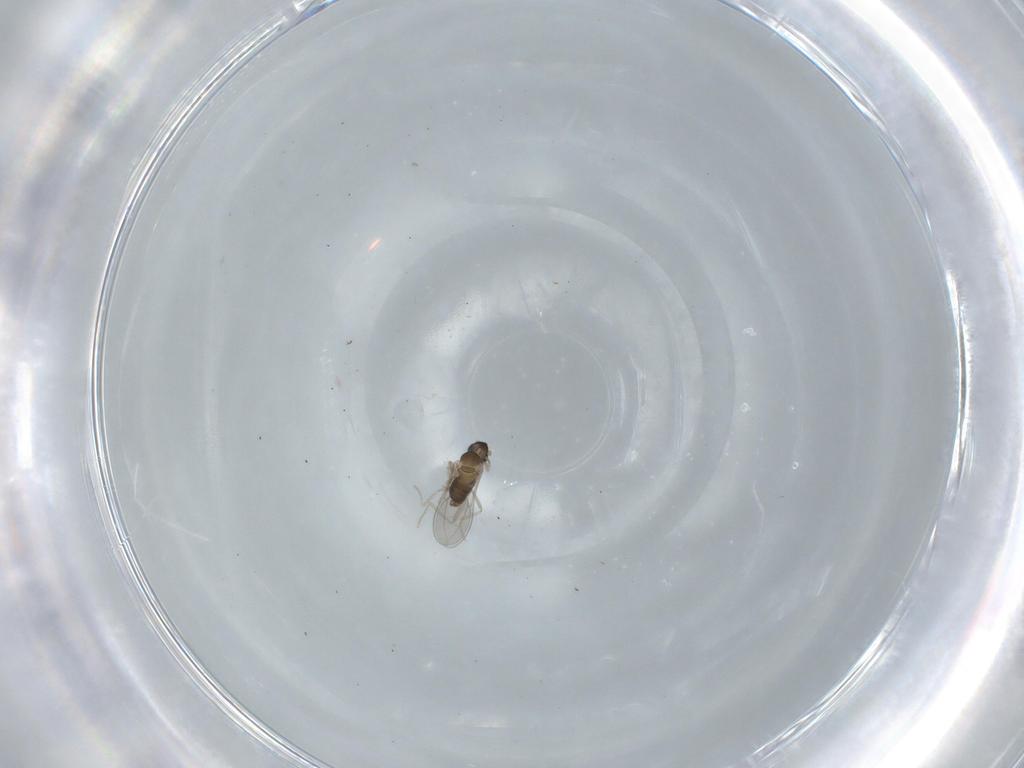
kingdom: Animalia
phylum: Arthropoda
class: Insecta
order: Diptera
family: Cecidomyiidae
